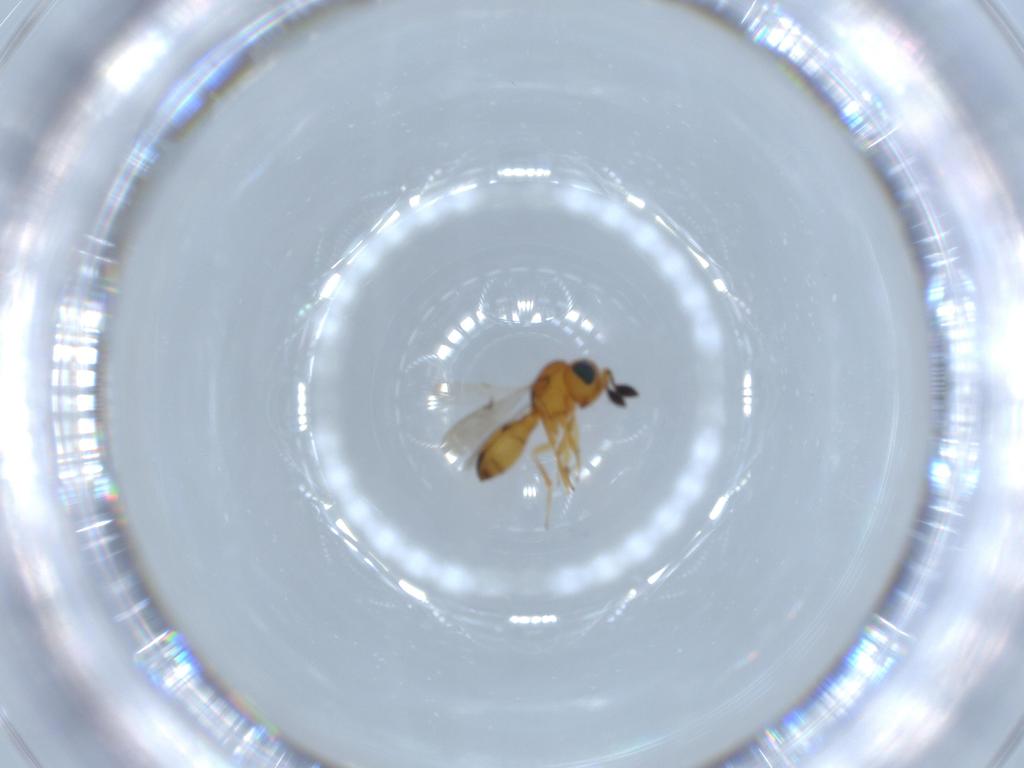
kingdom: Animalia
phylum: Arthropoda
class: Insecta
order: Hymenoptera
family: Scelionidae
